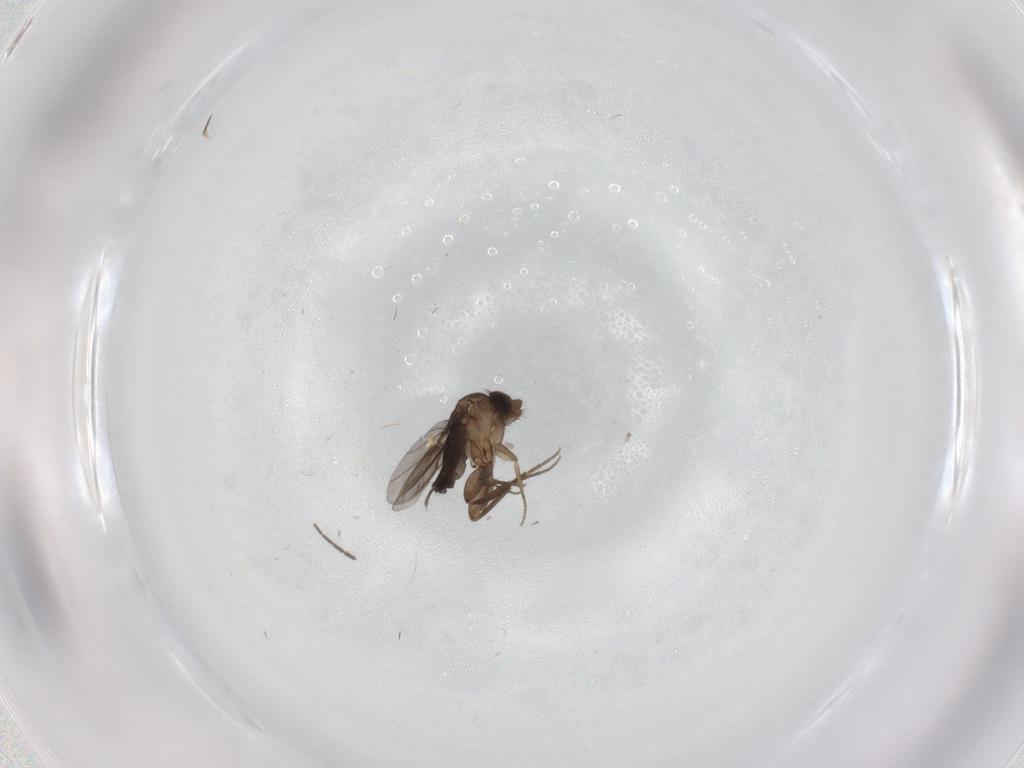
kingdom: Animalia
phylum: Arthropoda
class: Insecta
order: Diptera
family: Phoridae
